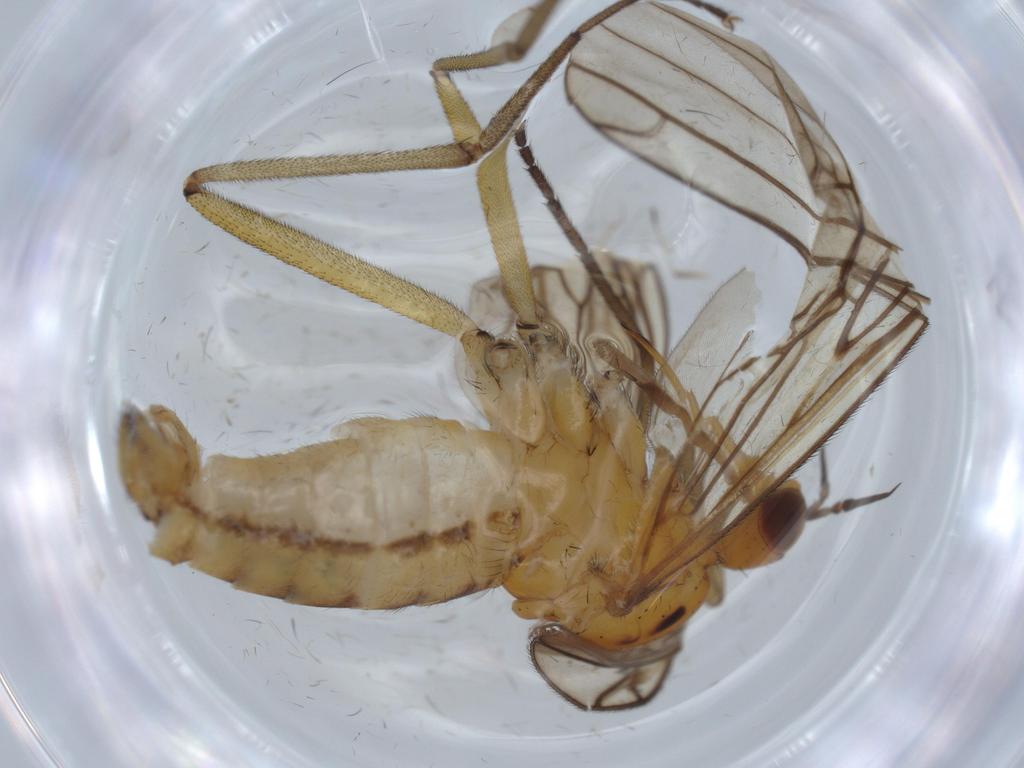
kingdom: Animalia
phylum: Arthropoda
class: Insecta
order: Diptera
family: Empididae
